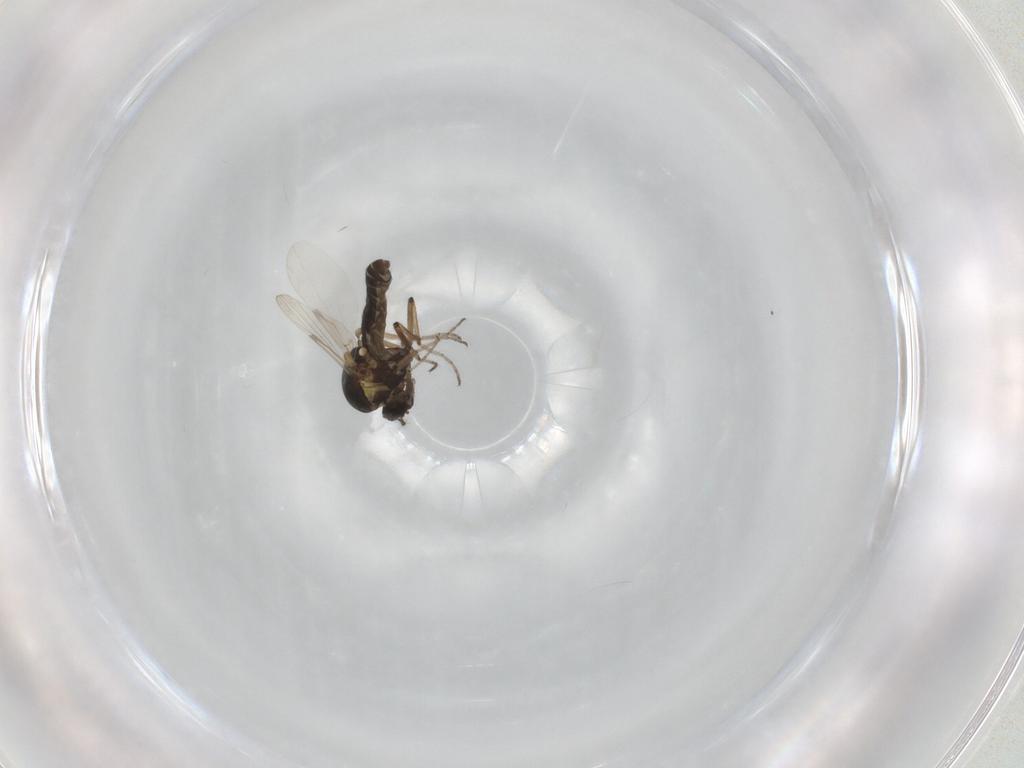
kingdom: Animalia
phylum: Arthropoda
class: Insecta
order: Diptera
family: Ceratopogonidae
